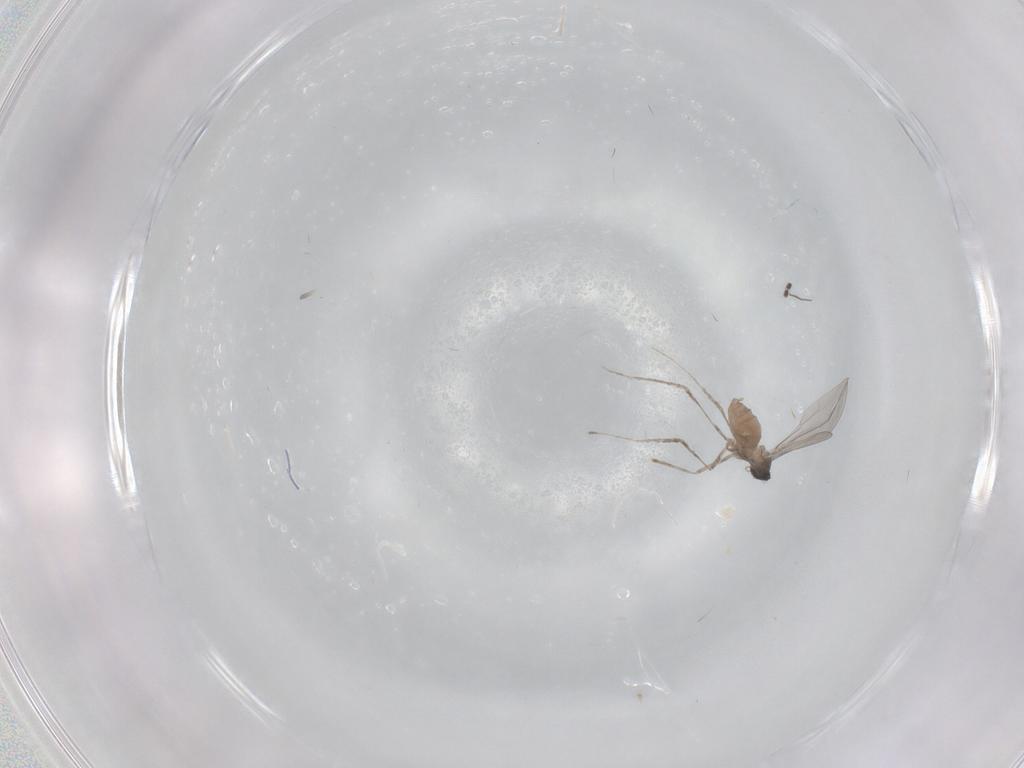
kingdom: Animalia
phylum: Arthropoda
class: Insecta
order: Diptera
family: Cecidomyiidae
